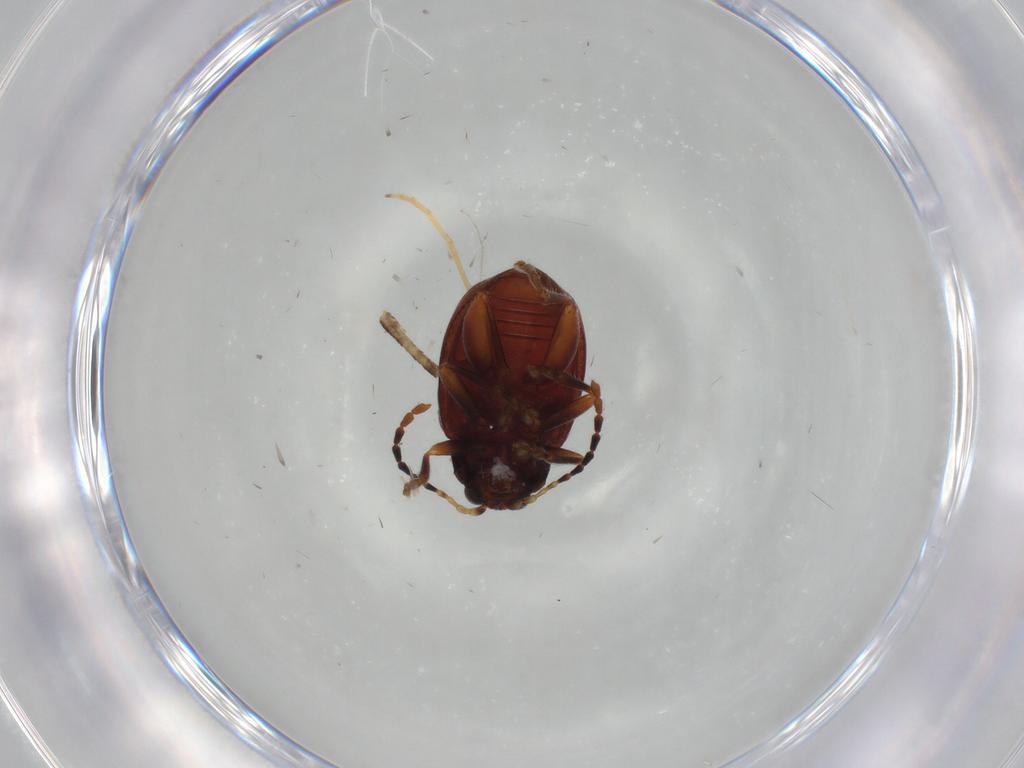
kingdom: Animalia
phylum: Arthropoda
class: Insecta
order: Coleoptera
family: Chrysomelidae
